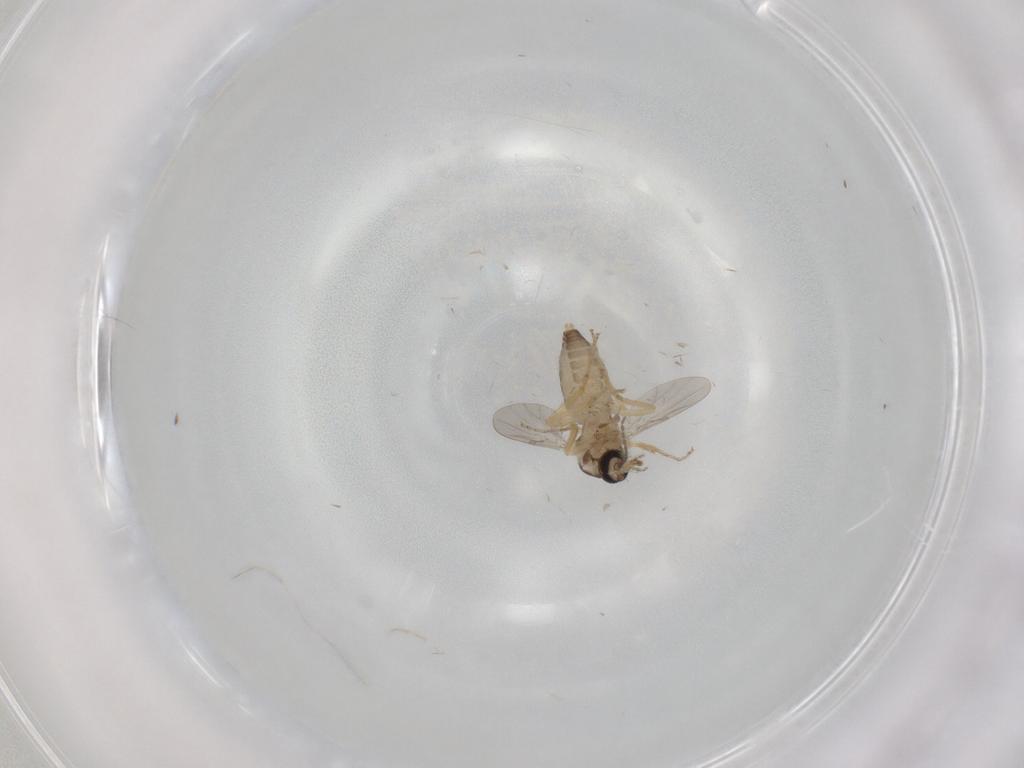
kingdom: Animalia
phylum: Arthropoda
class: Insecta
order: Diptera
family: Ceratopogonidae
